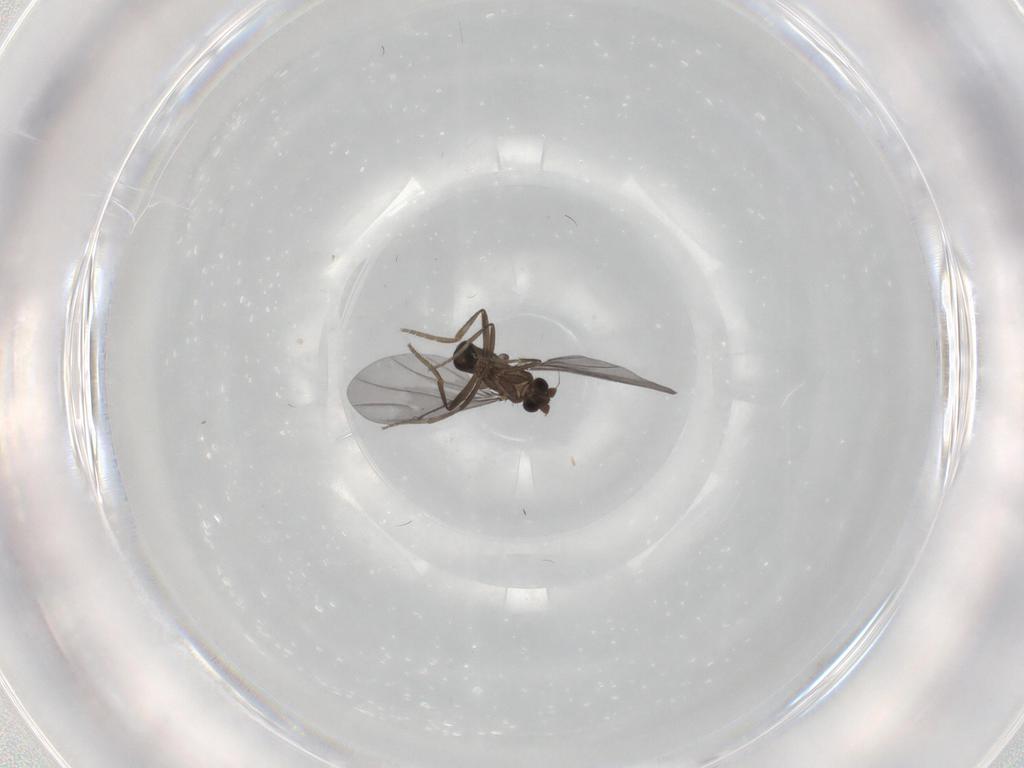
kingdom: Animalia
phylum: Arthropoda
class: Insecta
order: Diptera
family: Phoridae
